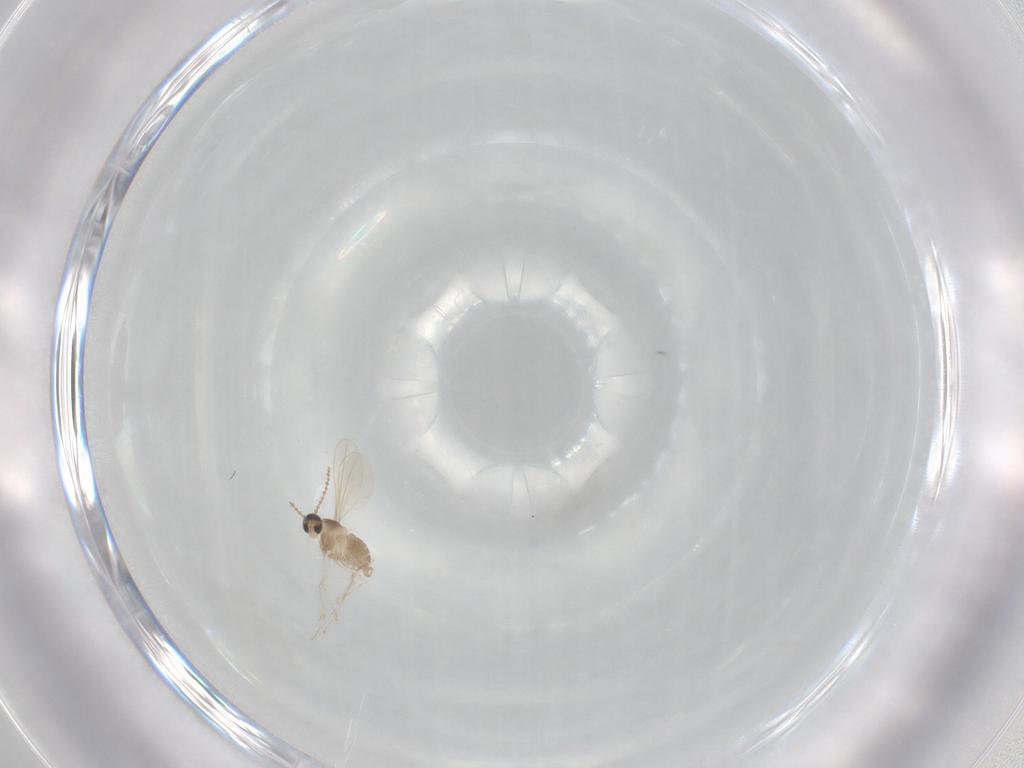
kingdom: Animalia
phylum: Arthropoda
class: Insecta
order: Diptera
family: Cecidomyiidae
